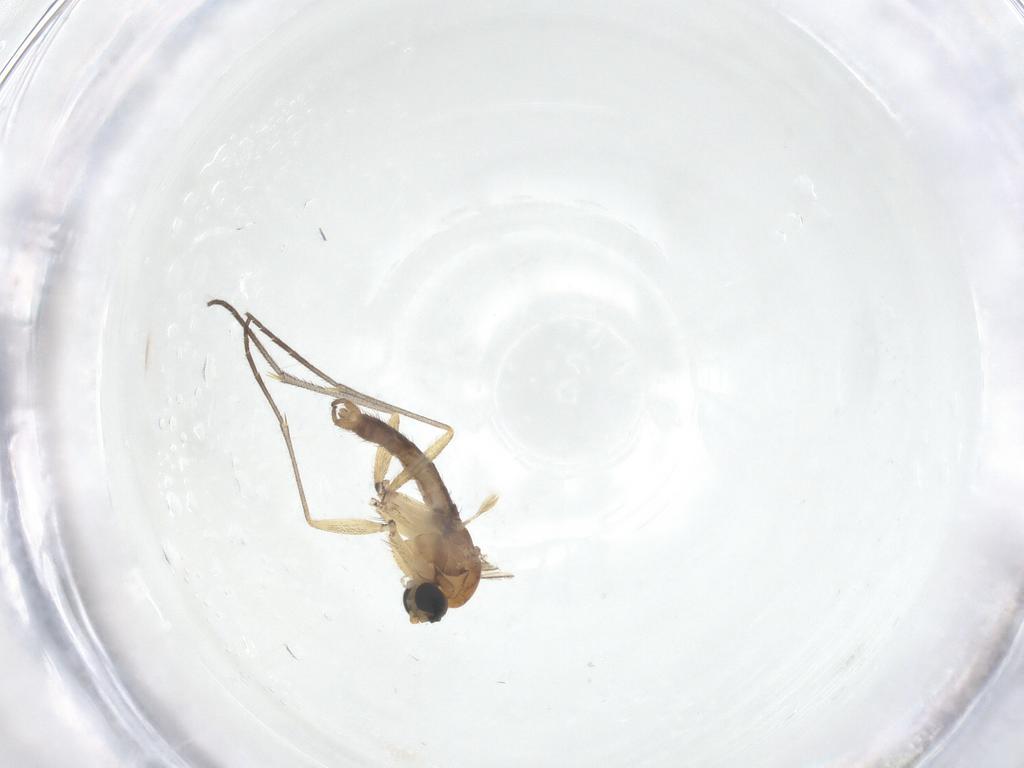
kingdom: Animalia
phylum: Arthropoda
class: Insecta
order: Diptera
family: Sciaridae
